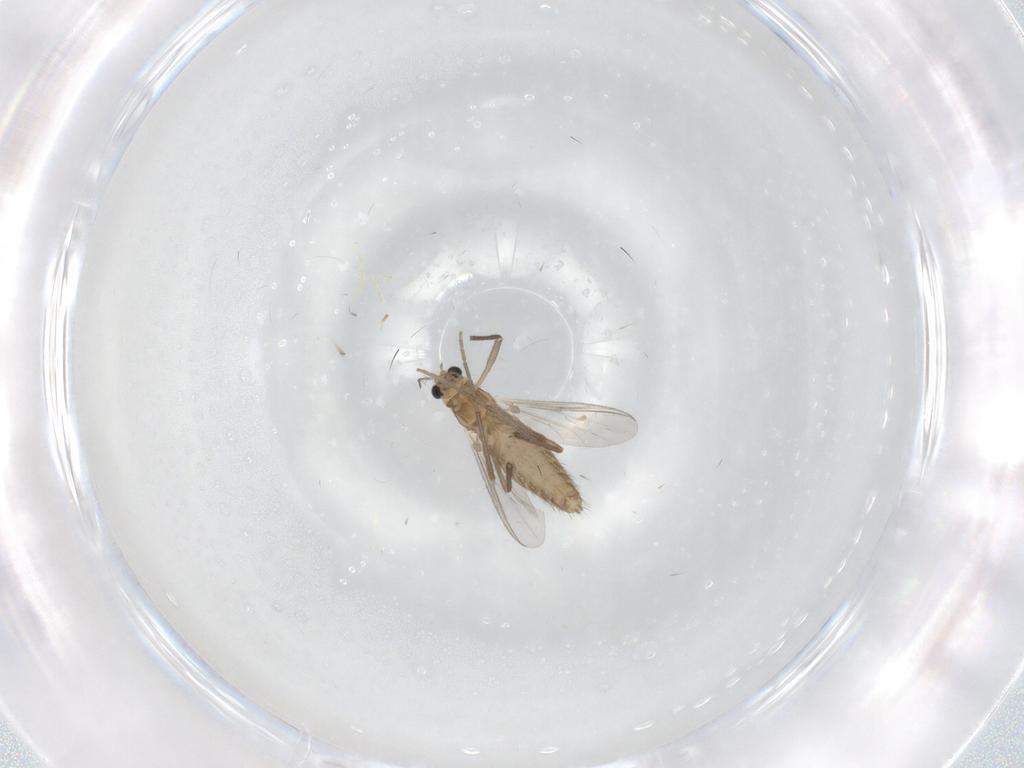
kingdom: Animalia
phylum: Arthropoda
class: Insecta
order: Diptera
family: Chironomidae
